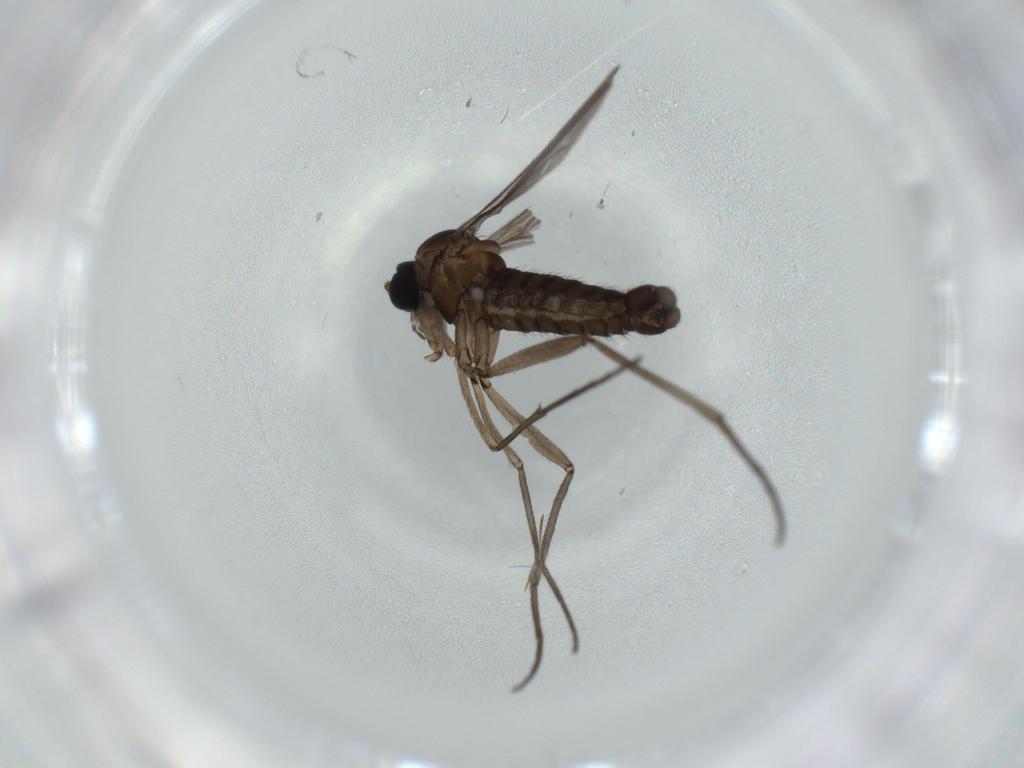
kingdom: Animalia
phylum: Arthropoda
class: Insecta
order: Diptera
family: Sciaridae
